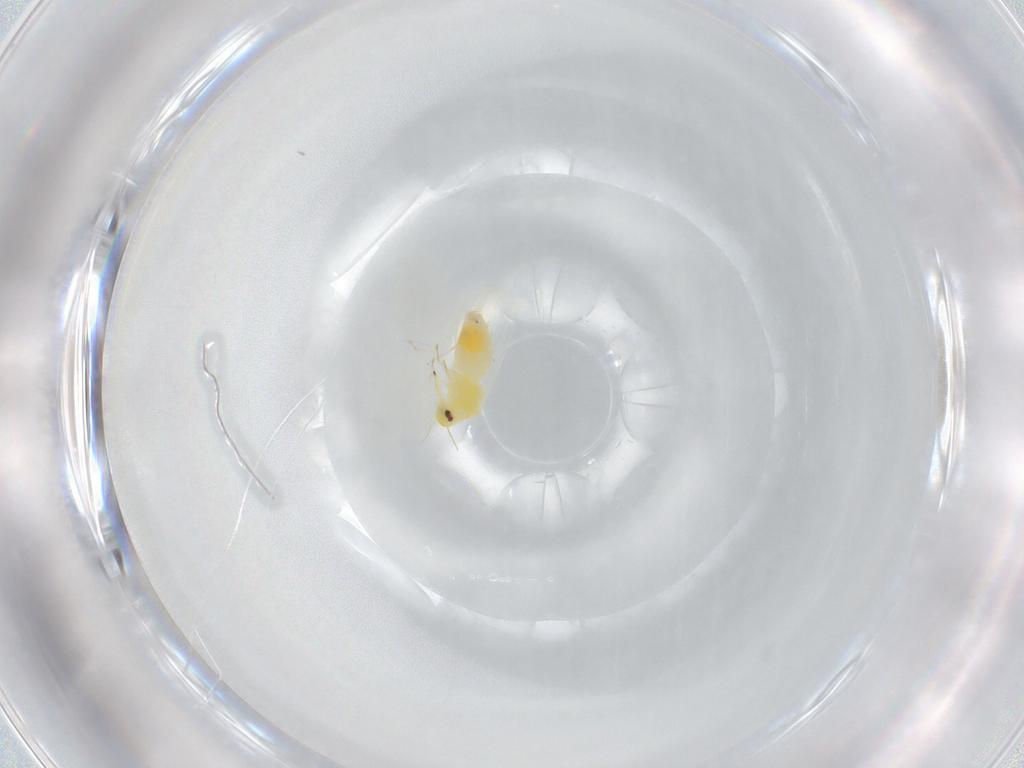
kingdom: Animalia
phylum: Arthropoda
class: Insecta
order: Hemiptera
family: Lygaeidae
